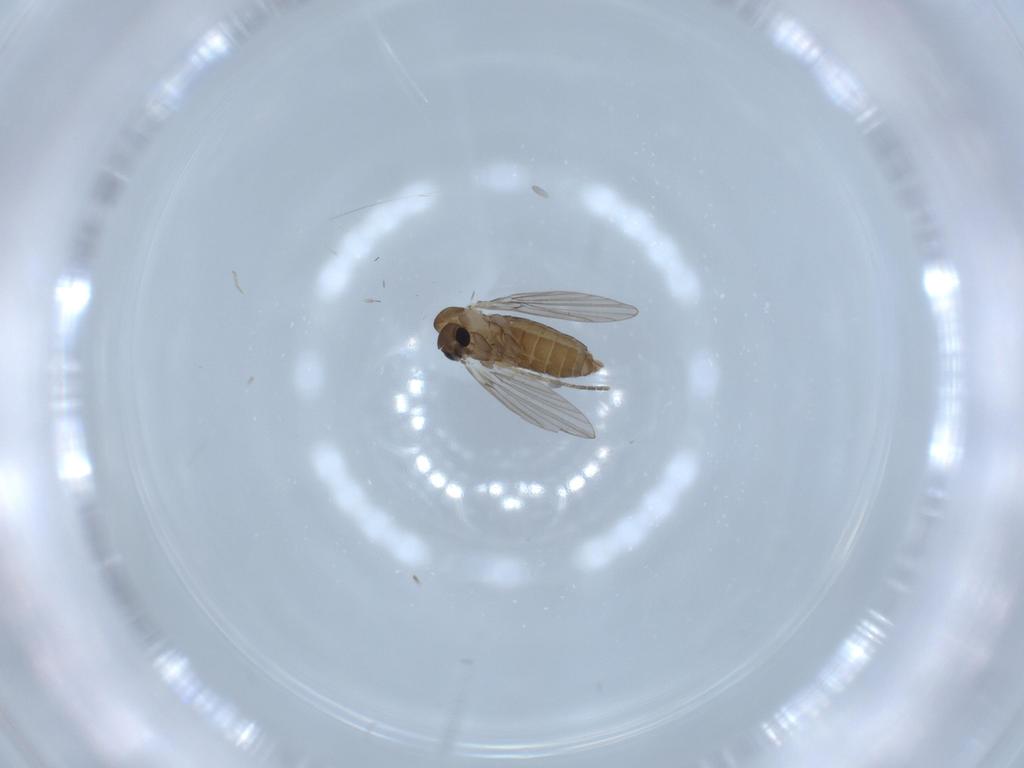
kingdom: Animalia
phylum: Arthropoda
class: Insecta
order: Diptera
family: Ceratopogonidae
